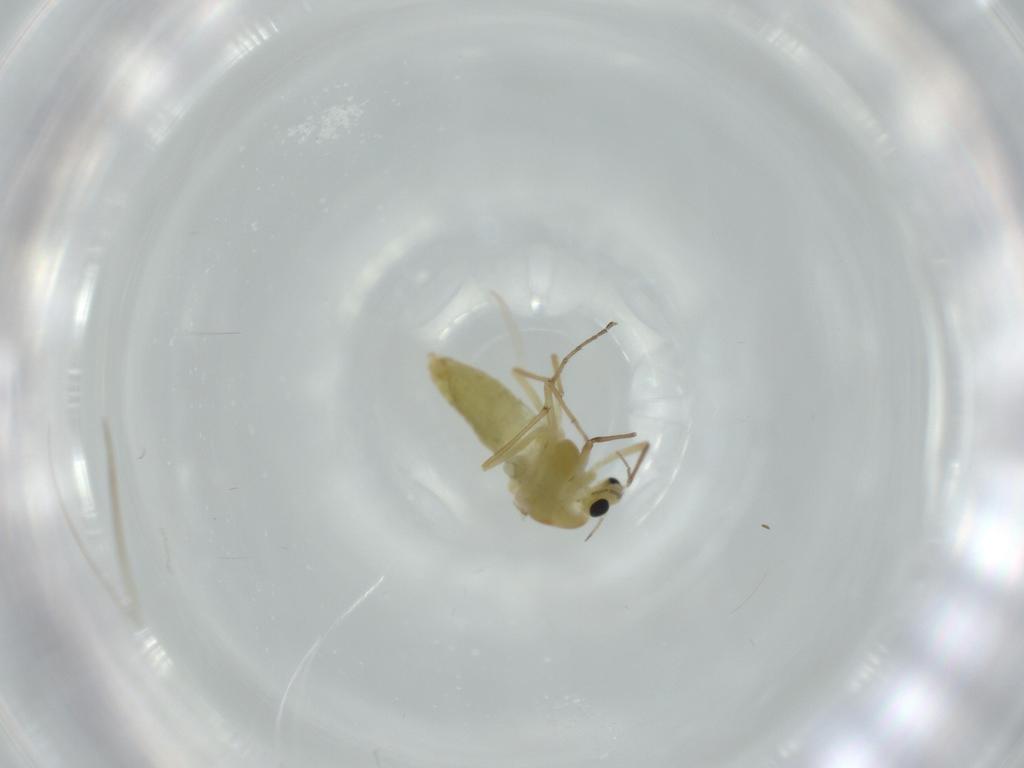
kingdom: Animalia
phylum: Arthropoda
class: Insecta
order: Diptera
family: Chironomidae
